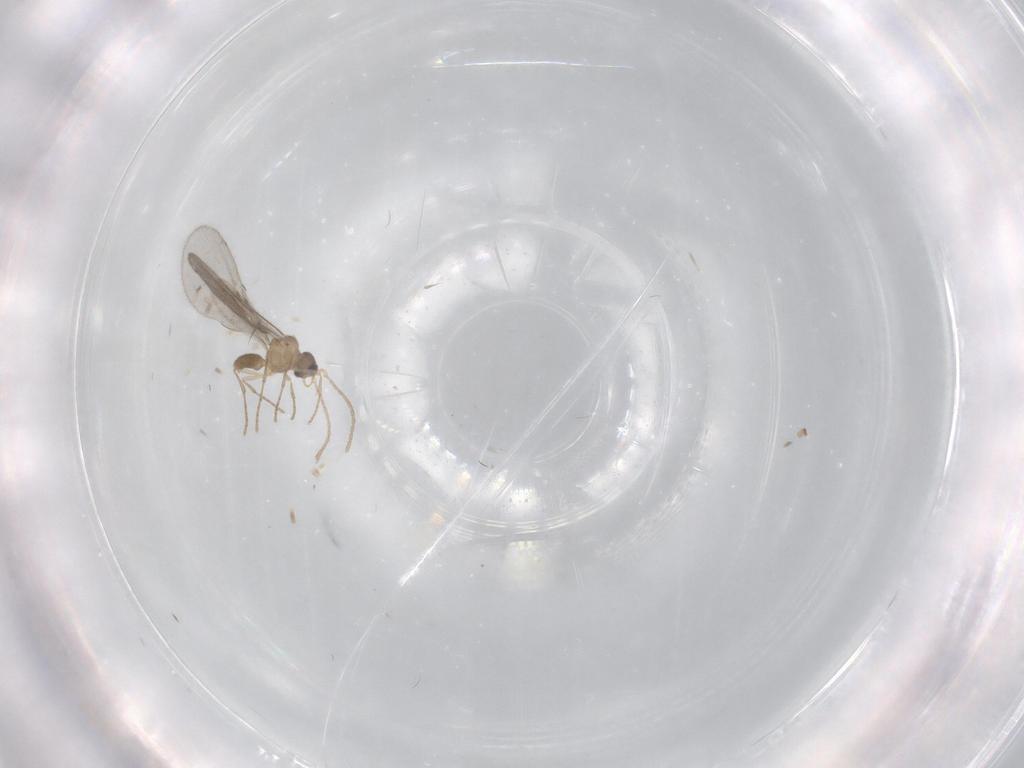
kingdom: Animalia
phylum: Arthropoda
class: Insecta
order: Hymenoptera
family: Formicidae
